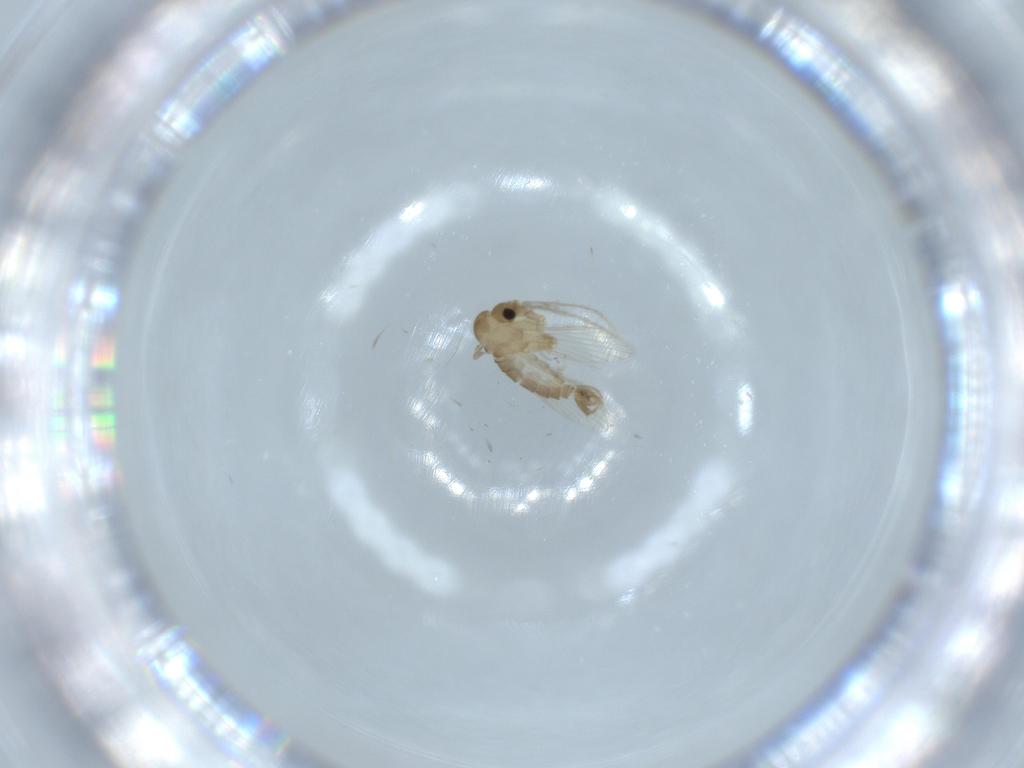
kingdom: Animalia
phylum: Arthropoda
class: Insecta
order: Diptera
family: Psychodidae
